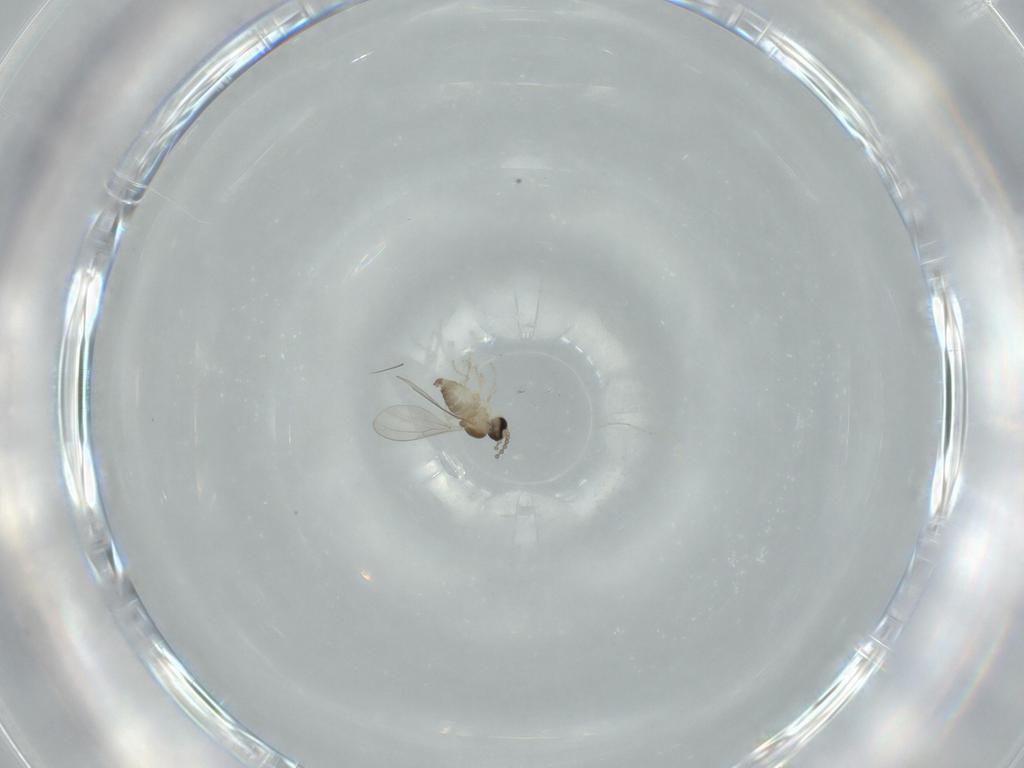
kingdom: Animalia
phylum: Arthropoda
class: Insecta
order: Diptera
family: Cecidomyiidae
